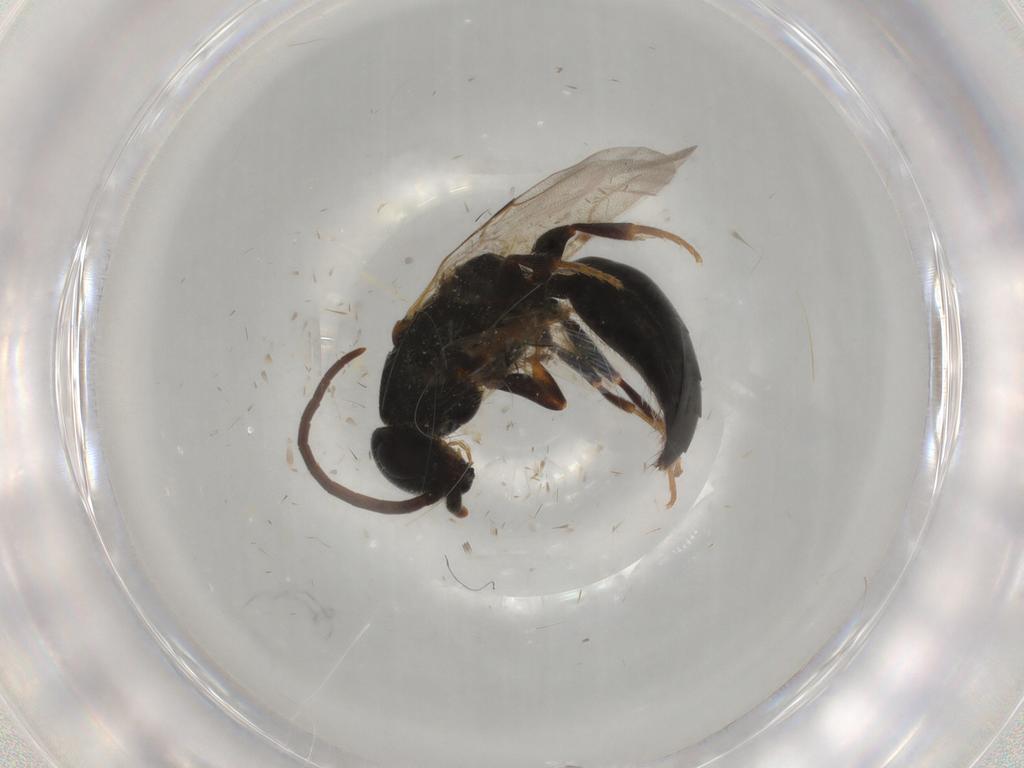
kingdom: Animalia
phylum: Arthropoda
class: Insecta
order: Hymenoptera
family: Bethylidae
